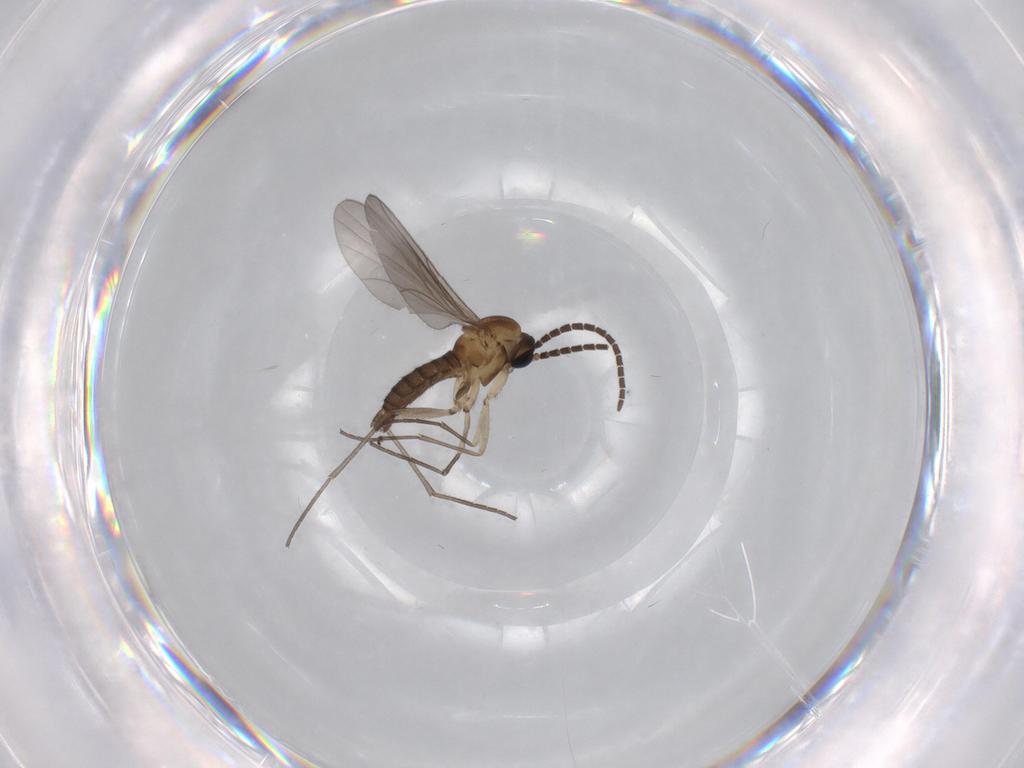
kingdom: Animalia
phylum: Arthropoda
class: Insecta
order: Diptera
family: Sciaridae
